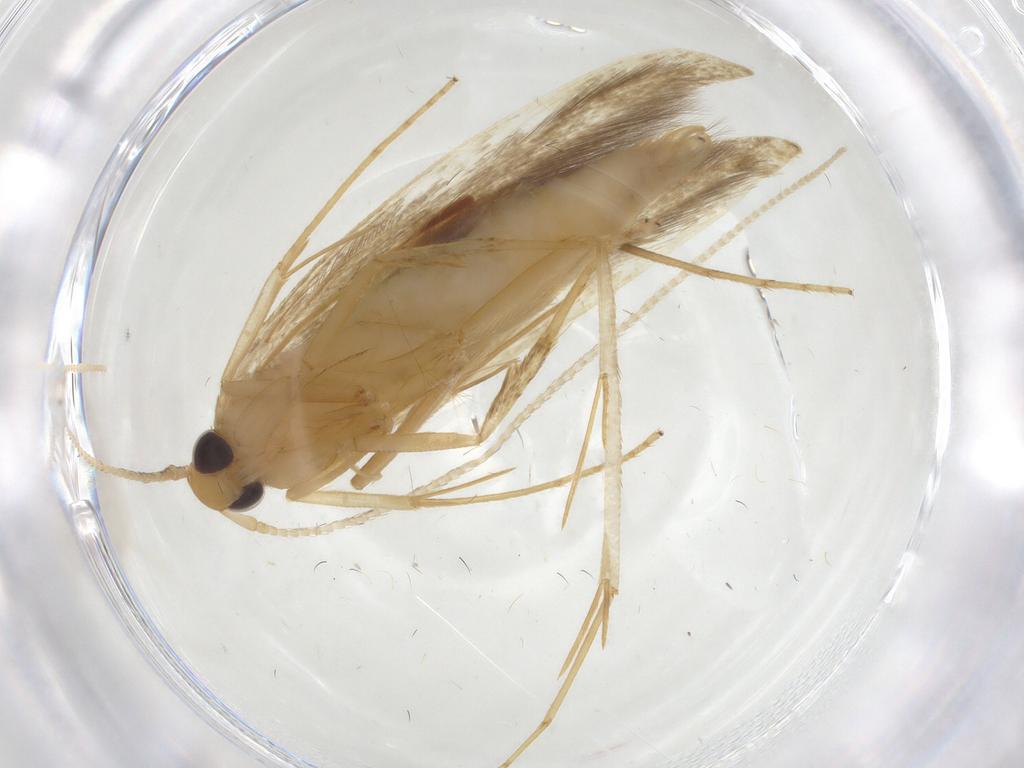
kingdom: Animalia
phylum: Arthropoda
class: Insecta
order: Lepidoptera
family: Tineidae
